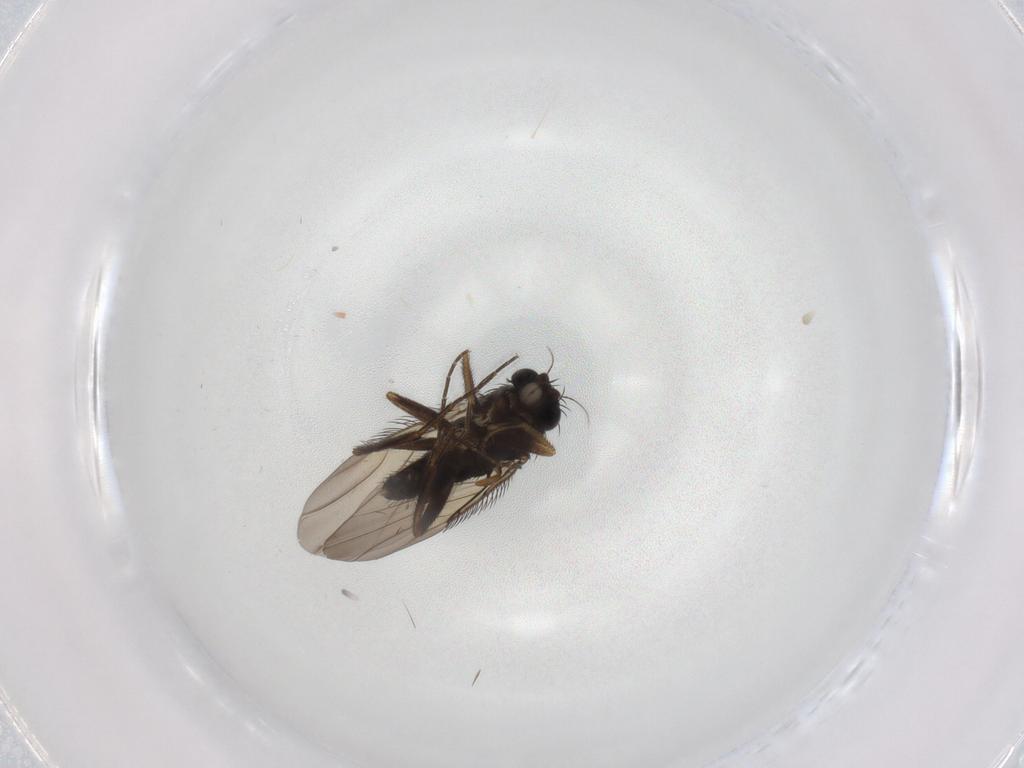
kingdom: Animalia
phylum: Arthropoda
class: Insecta
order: Diptera
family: Phoridae
